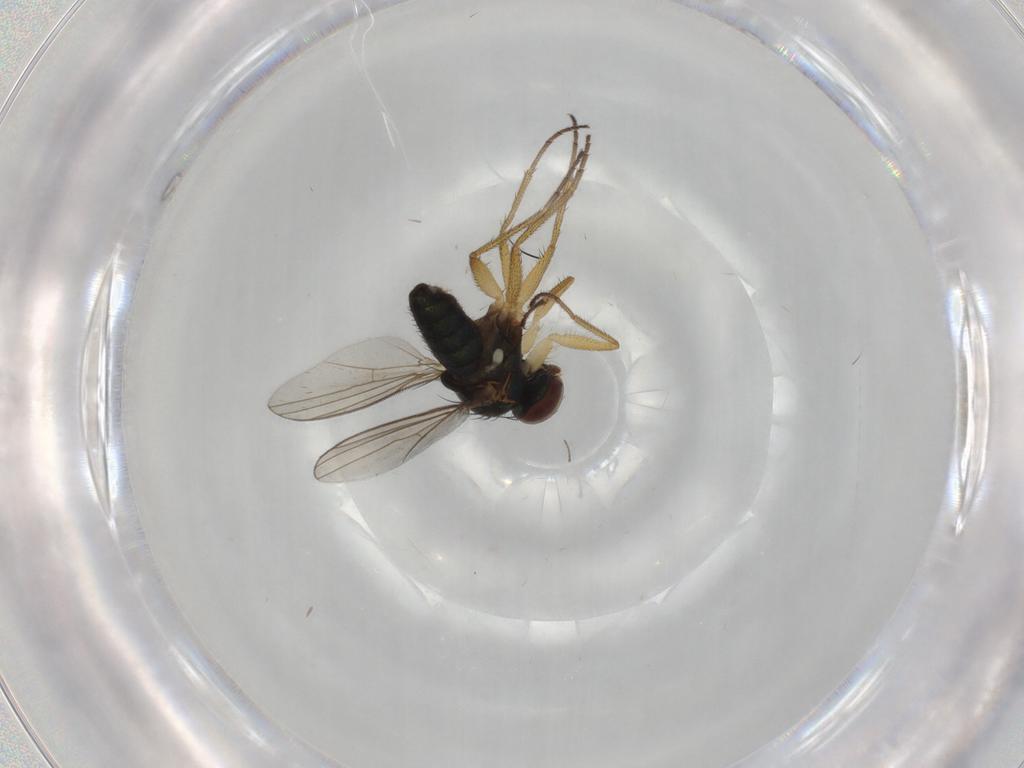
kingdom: Animalia
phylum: Arthropoda
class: Insecta
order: Diptera
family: Dolichopodidae
